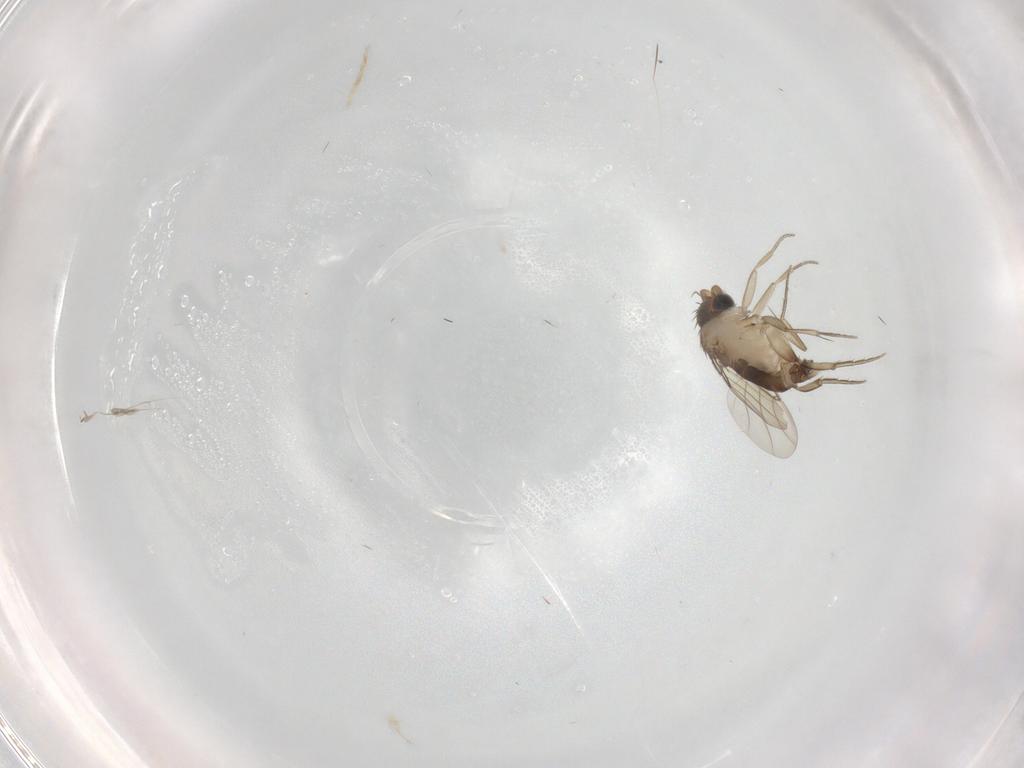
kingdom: Animalia
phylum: Arthropoda
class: Insecta
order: Diptera
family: Phoridae
